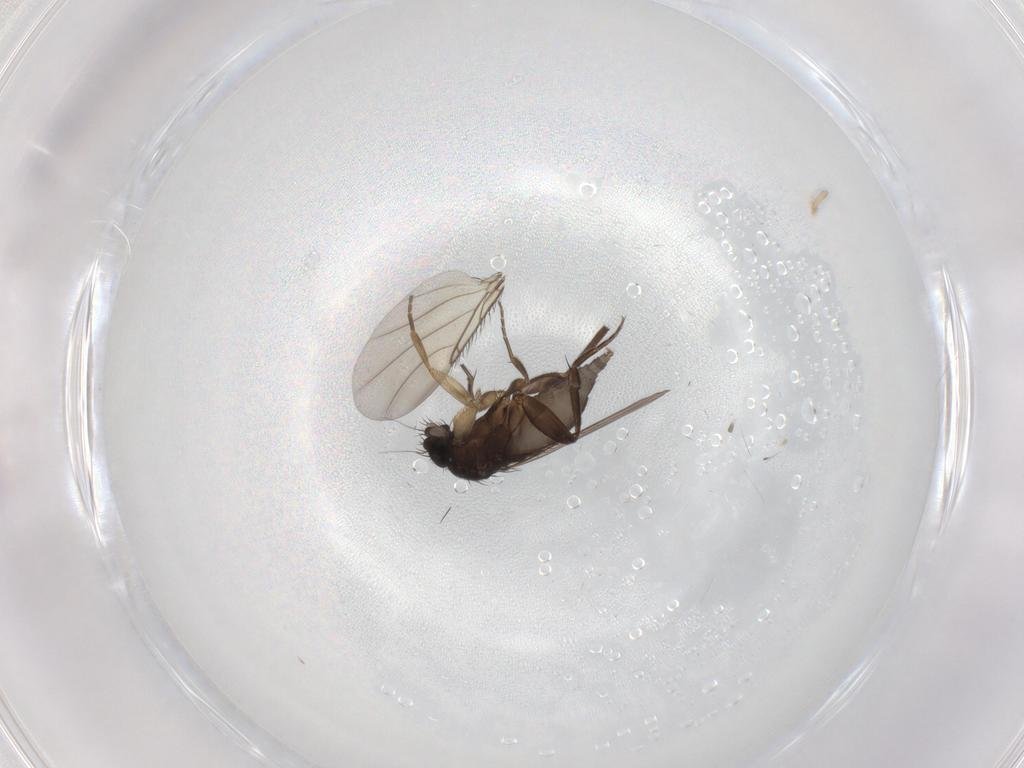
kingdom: Animalia
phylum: Arthropoda
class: Insecta
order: Diptera
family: Phoridae
